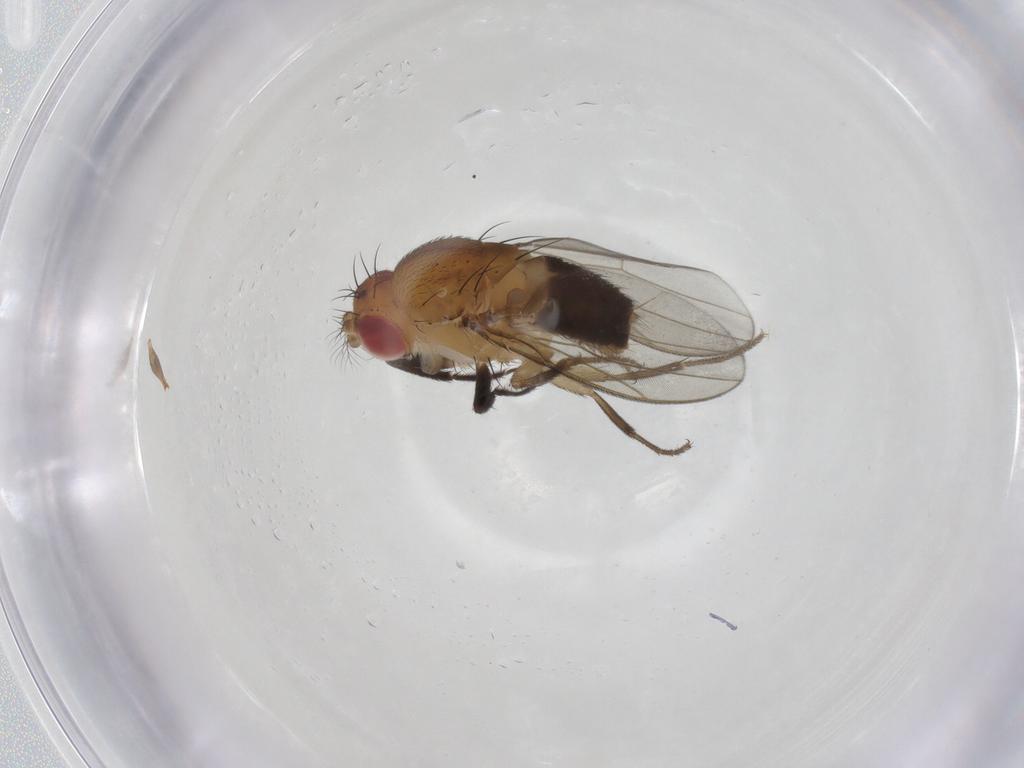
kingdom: Animalia
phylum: Arthropoda
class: Insecta
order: Diptera
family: Drosophilidae
